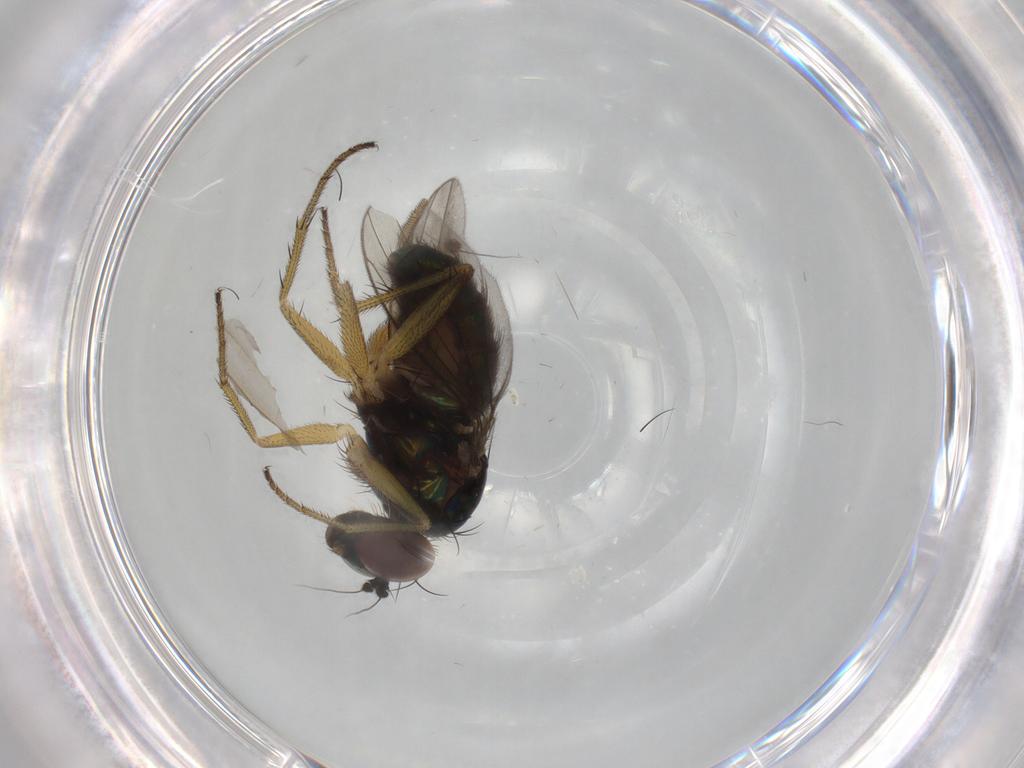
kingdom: Animalia
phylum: Arthropoda
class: Insecta
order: Diptera
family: Dolichopodidae
